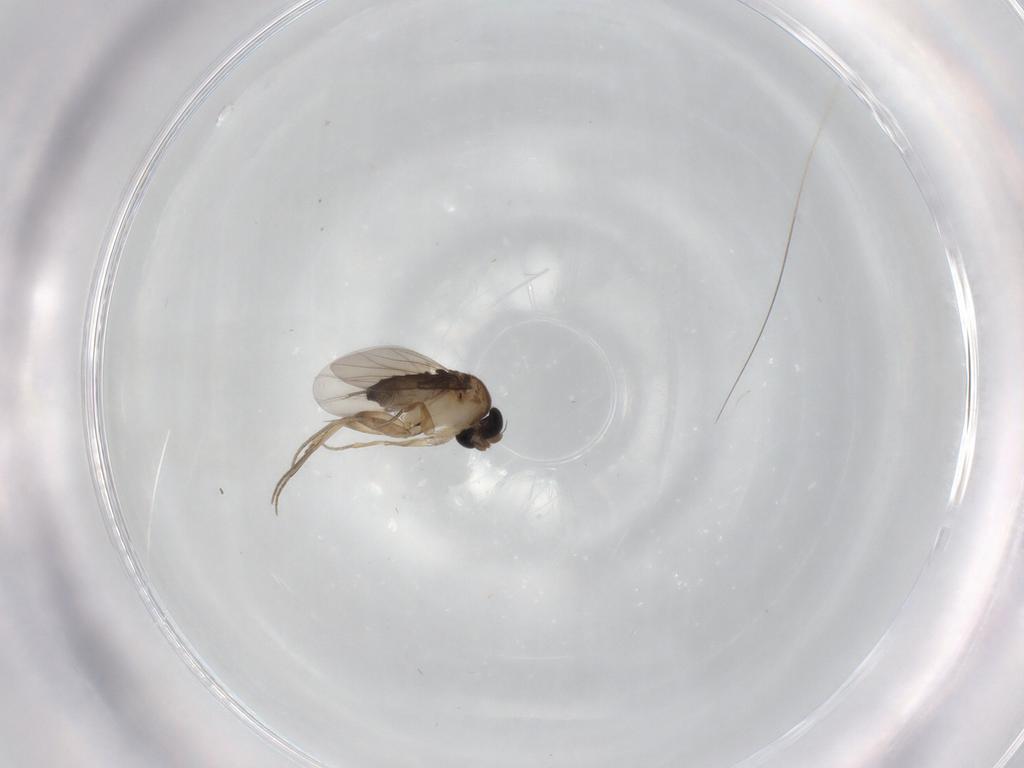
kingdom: Animalia
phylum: Arthropoda
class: Insecta
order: Diptera
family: Phoridae
